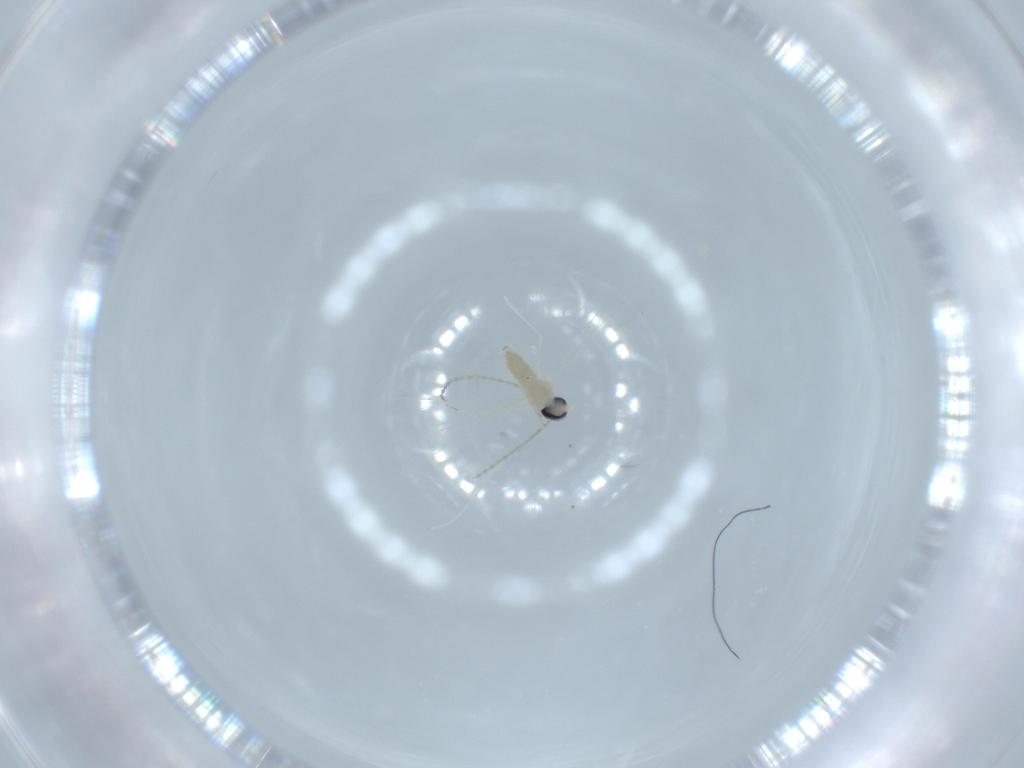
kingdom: Animalia
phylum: Arthropoda
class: Insecta
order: Diptera
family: Cecidomyiidae
